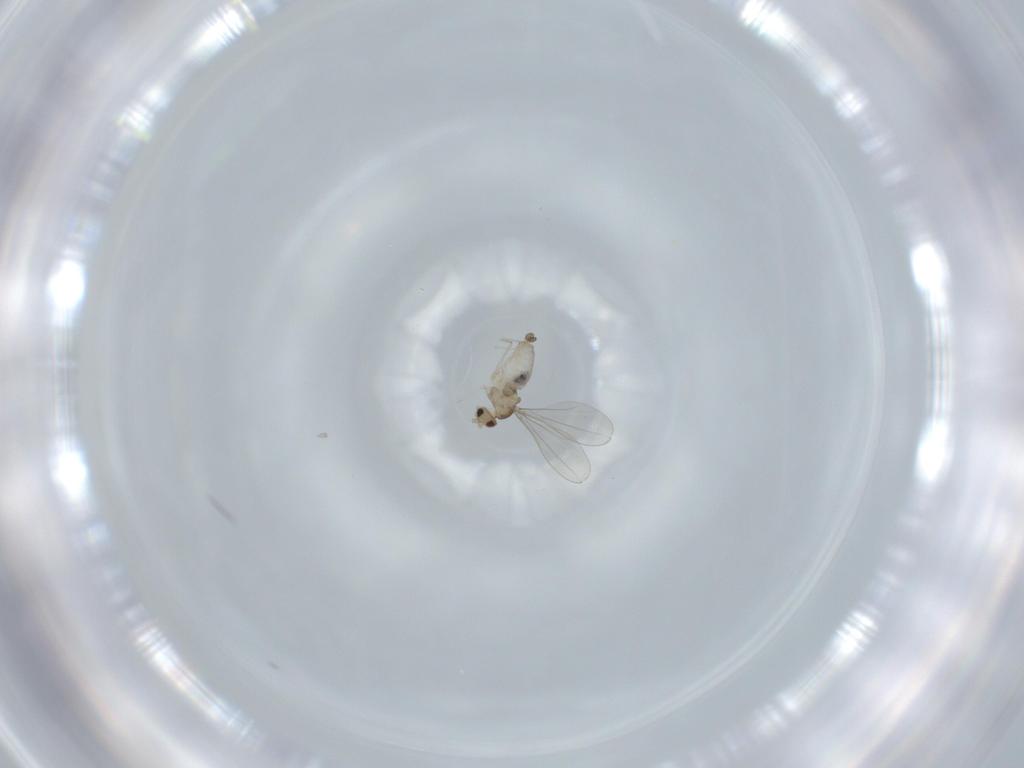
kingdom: Animalia
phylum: Arthropoda
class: Insecta
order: Diptera
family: Cecidomyiidae
